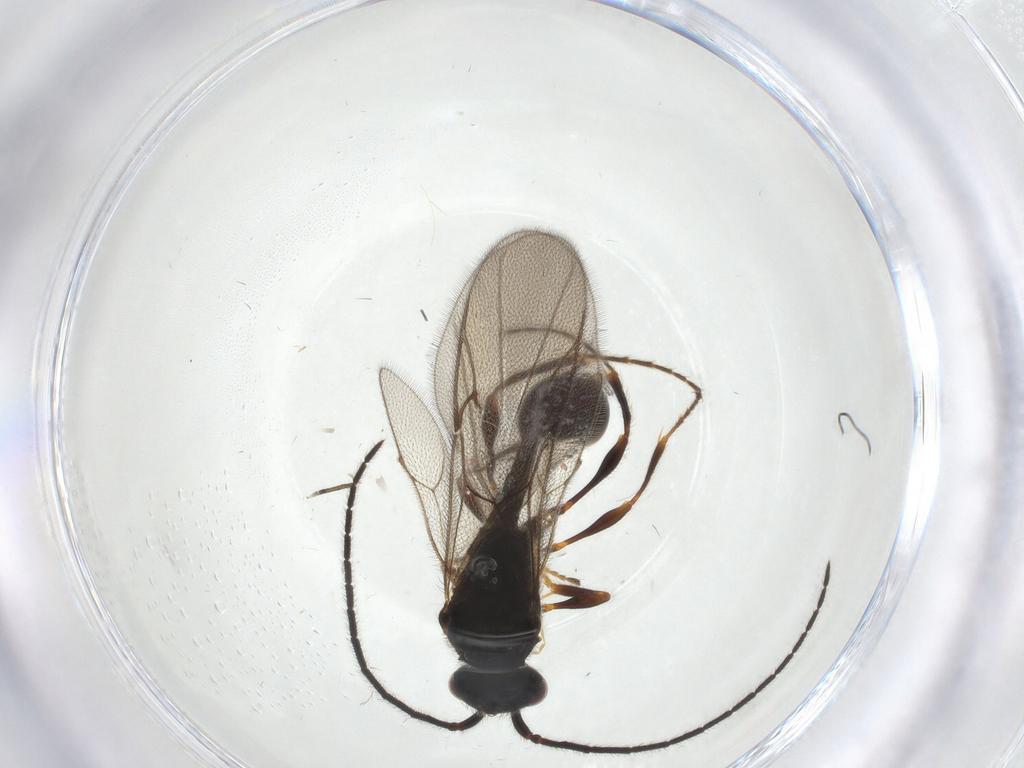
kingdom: Animalia
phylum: Arthropoda
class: Insecta
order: Hymenoptera
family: Diapriidae
